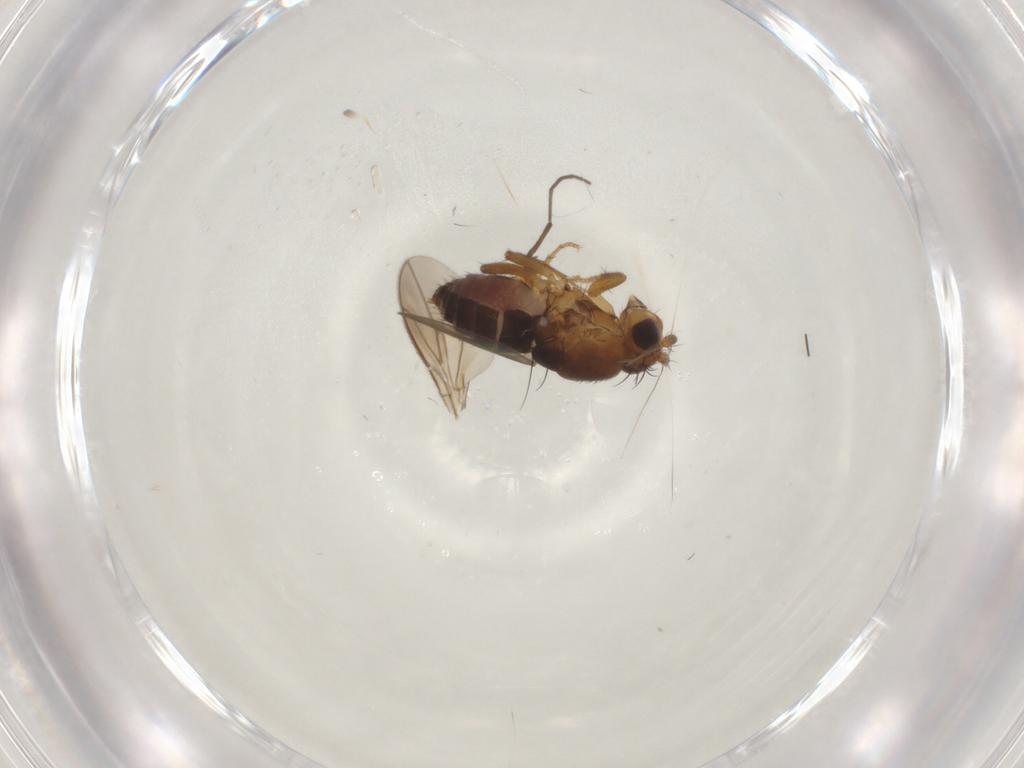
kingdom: Animalia
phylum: Arthropoda
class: Insecta
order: Diptera
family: Sphaeroceridae
